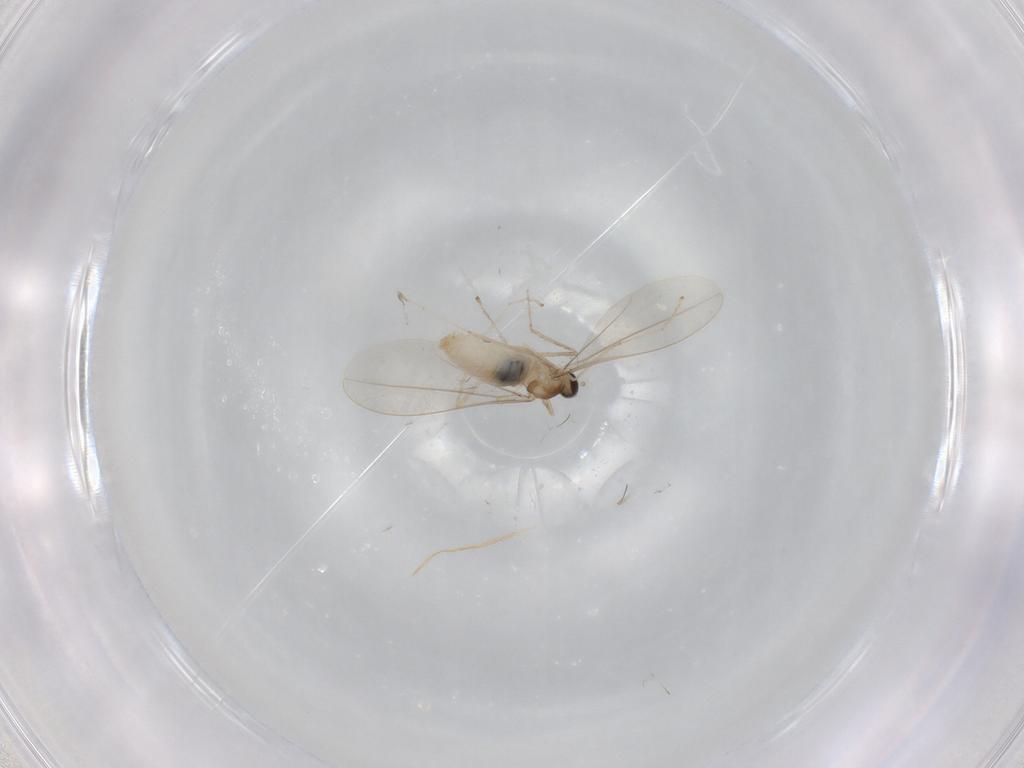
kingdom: Animalia
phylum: Arthropoda
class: Insecta
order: Diptera
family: Cecidomyiidae
